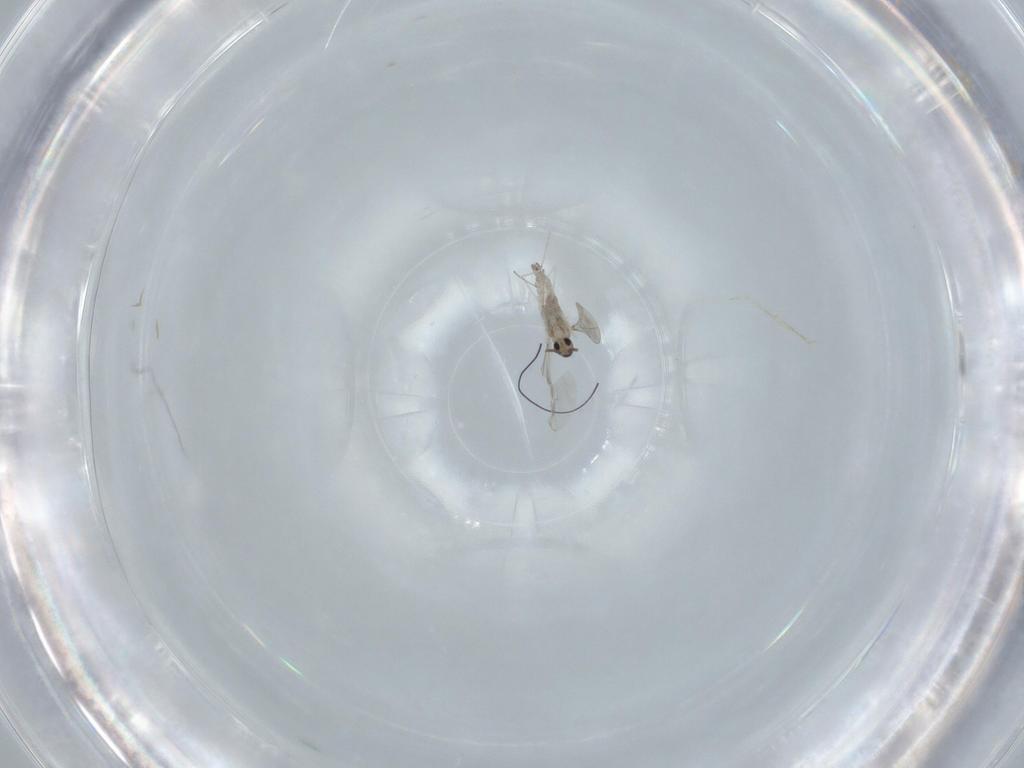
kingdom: Animalia
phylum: Arthropoda
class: Insecta
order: Diptera
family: Cecidomyiidae
